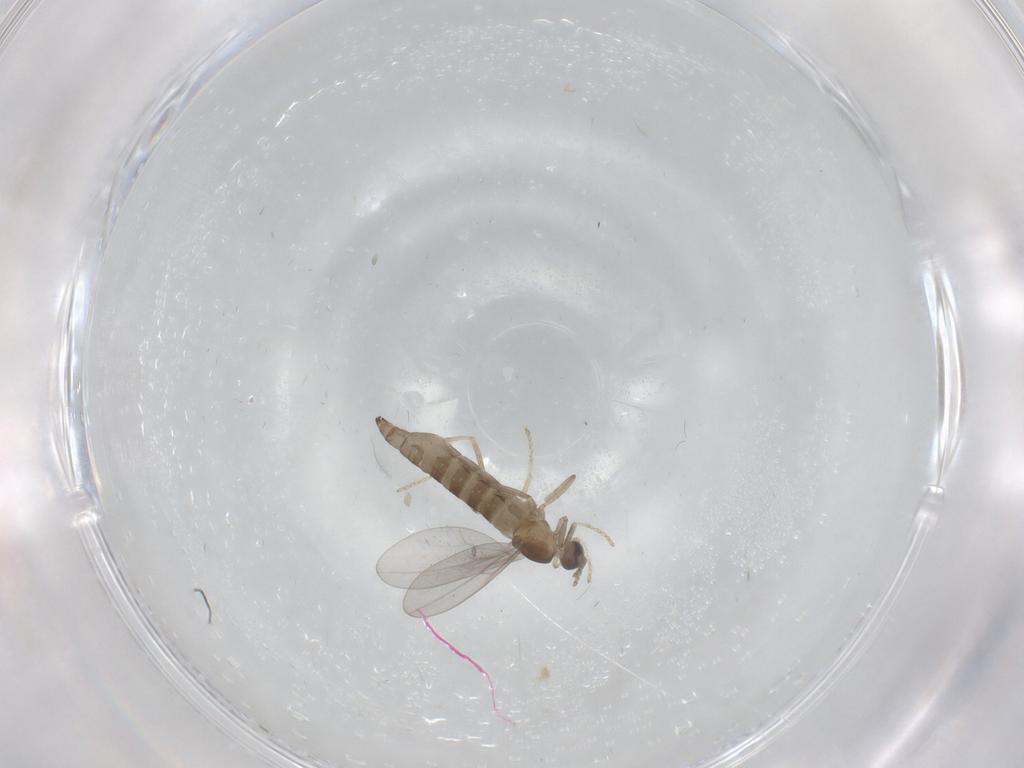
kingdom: Animalia
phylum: Arthropoda
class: Insecta
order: Diptera
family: Cecidomyiidae
